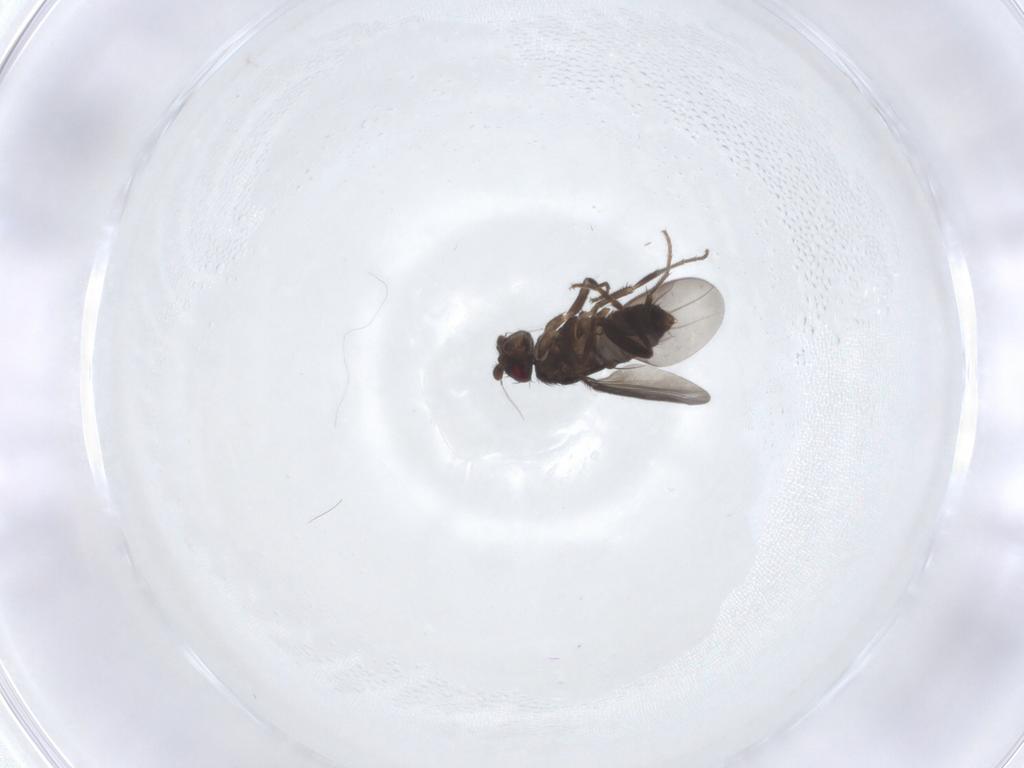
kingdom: Animalia
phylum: Arthropoda
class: Insecta
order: Diptera
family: Sphaeroceridae
